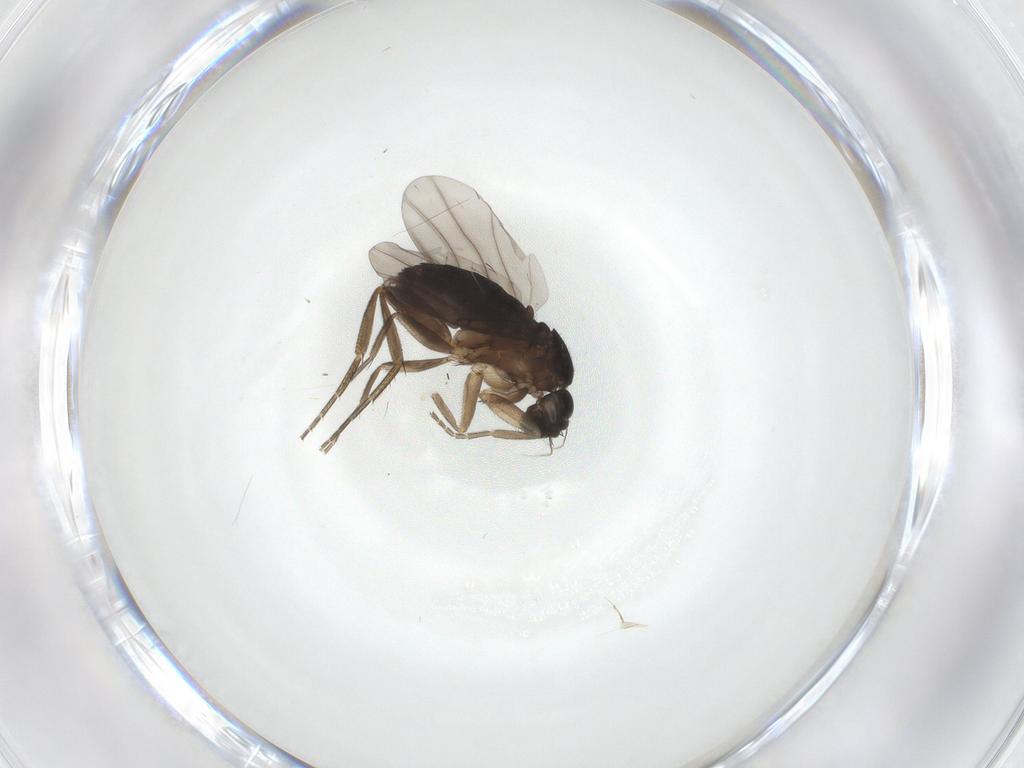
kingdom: Animalia
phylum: Arthropoda
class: Insecta
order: Diptera
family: Phoridae
